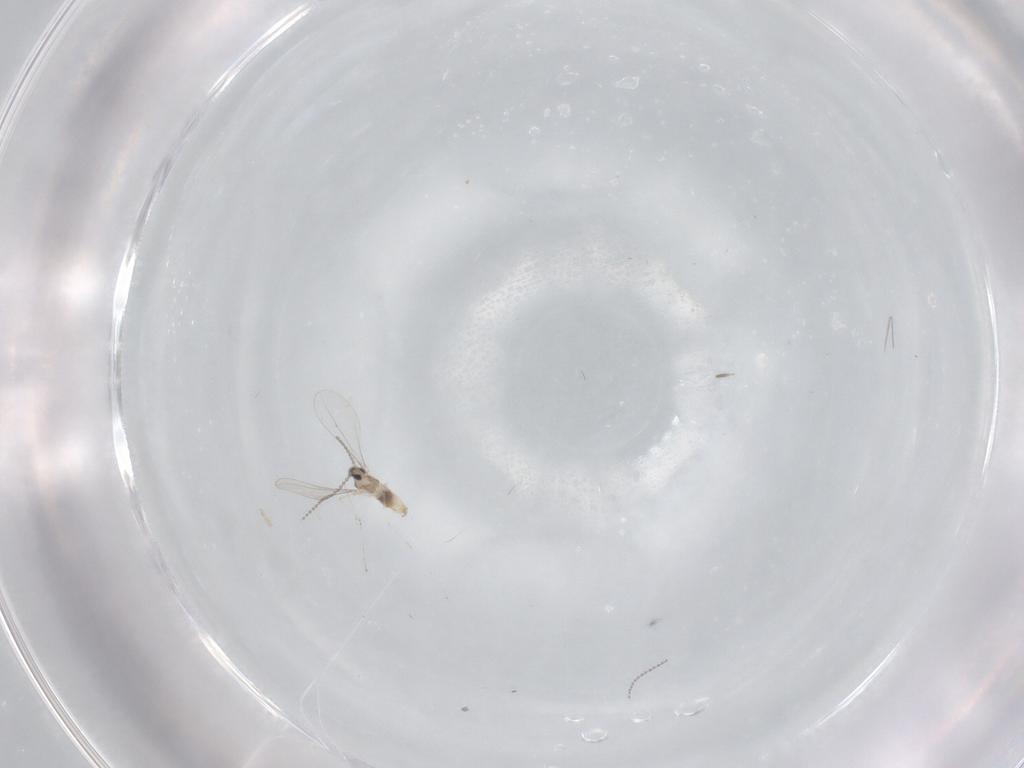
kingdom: Animalia
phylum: Arthropoda
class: Insecta
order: Diptera
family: Cecidomyiidae
